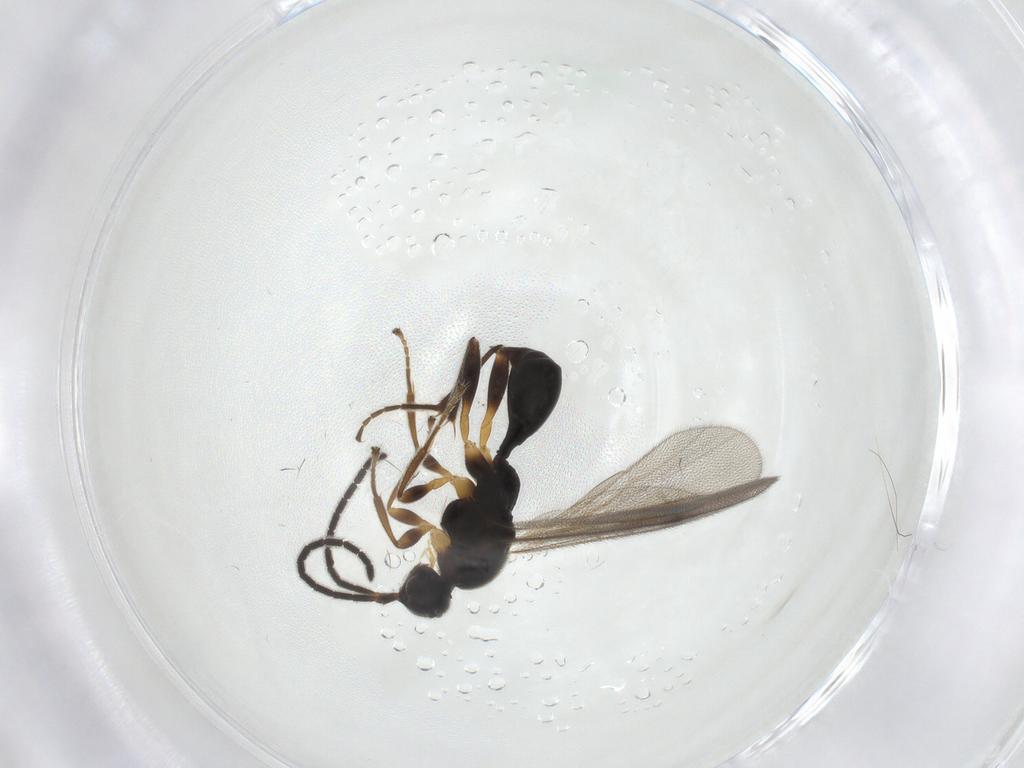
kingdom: Animalia
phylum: Arthropoda
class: Insecta
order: Hymenoptera
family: Proctotrupidae
